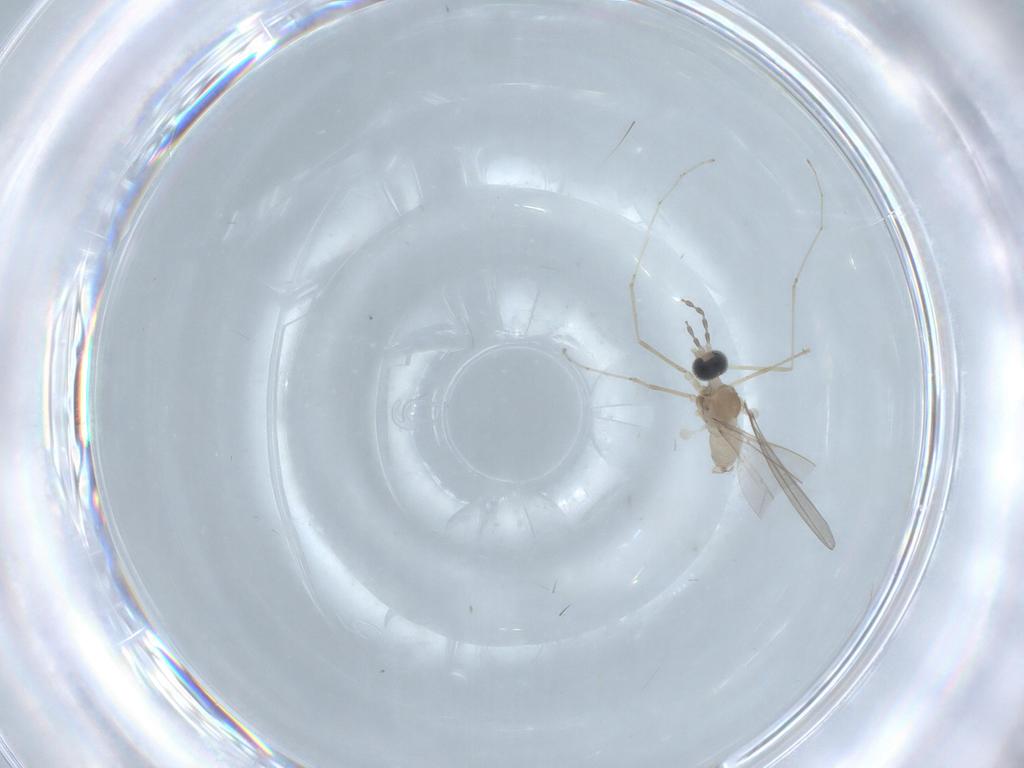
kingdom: Animalia
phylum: Arthropoda
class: Insecta
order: Diptera
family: Cecidomyiidae
